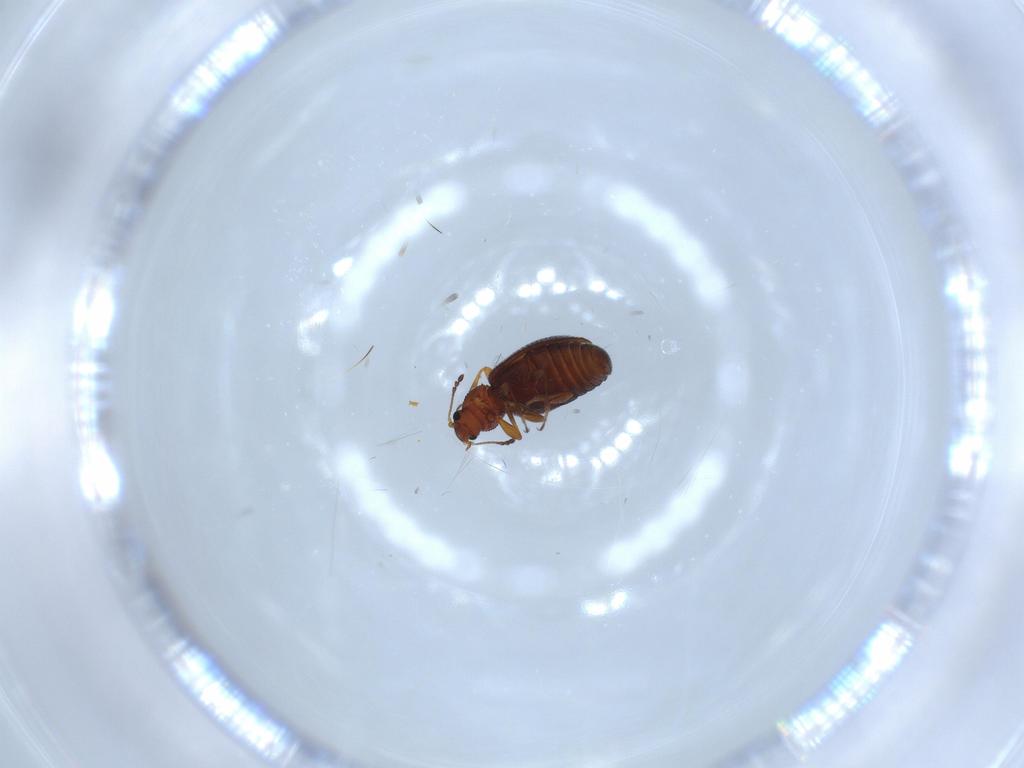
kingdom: Animalia
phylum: Arthropoda
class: Insecta
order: Coleoptera
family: Latridiidae
